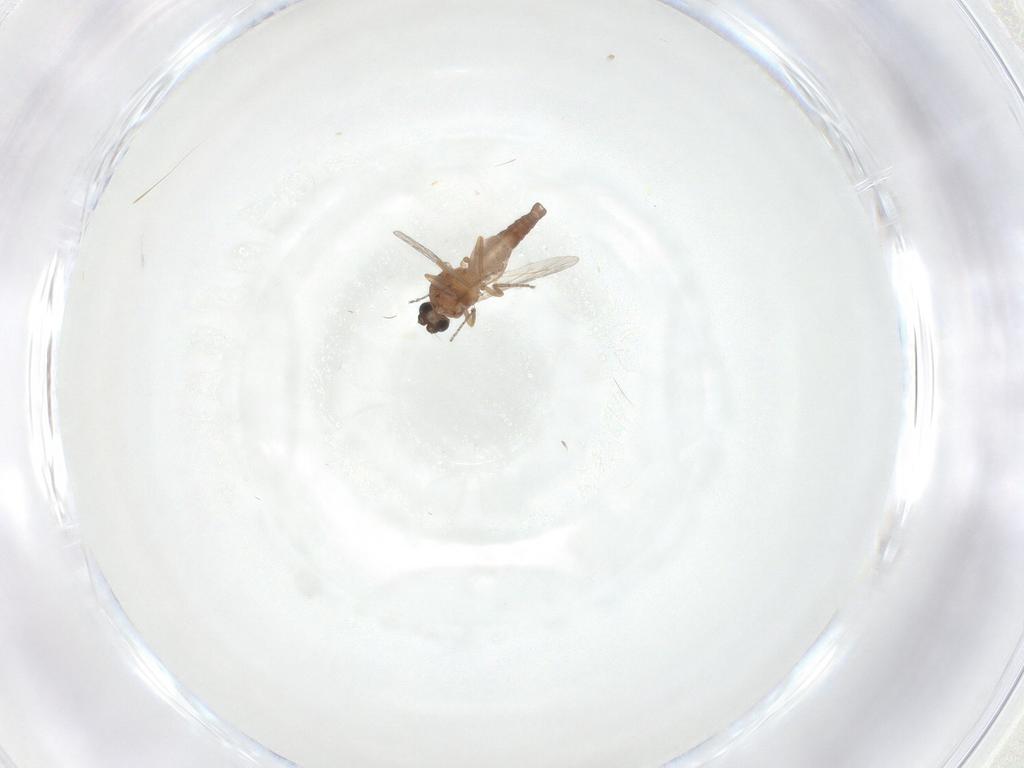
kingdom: Animalia
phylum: Arthropoda
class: Insecta
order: Diptera
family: Ceratopogonidae
